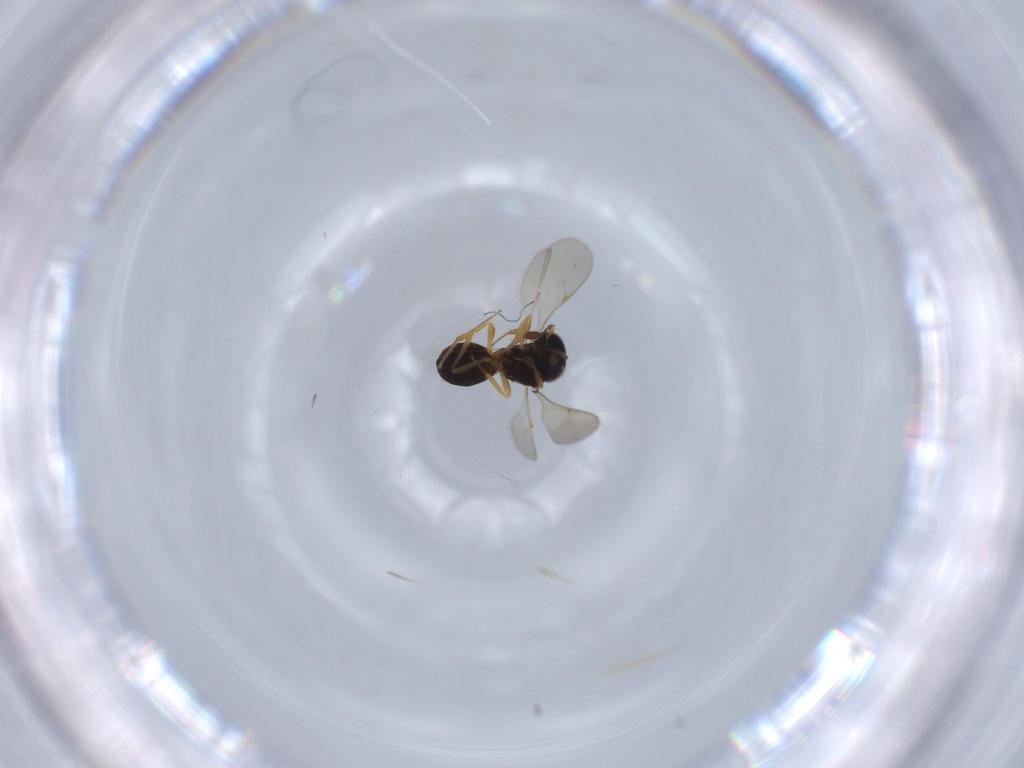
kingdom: Animalia
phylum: Arthropoda
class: Insecta
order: Hymenoptera
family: Scelionidae
